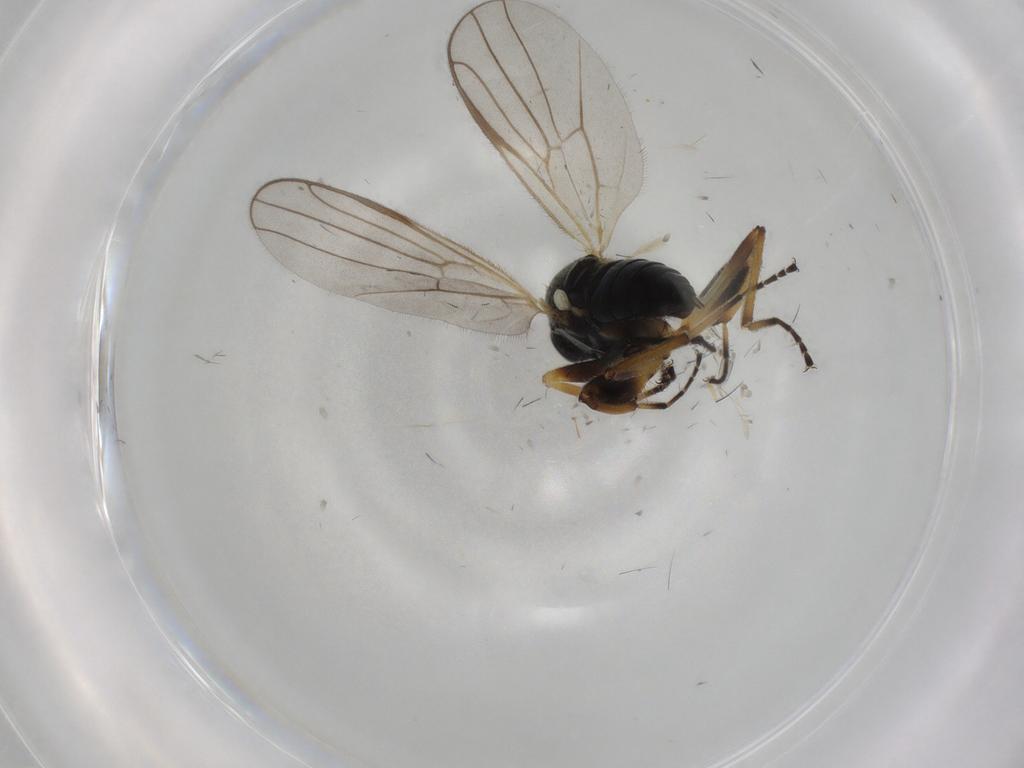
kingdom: Animalia
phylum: Arthropoda
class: Insecta
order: Diptera
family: Hybotidae
